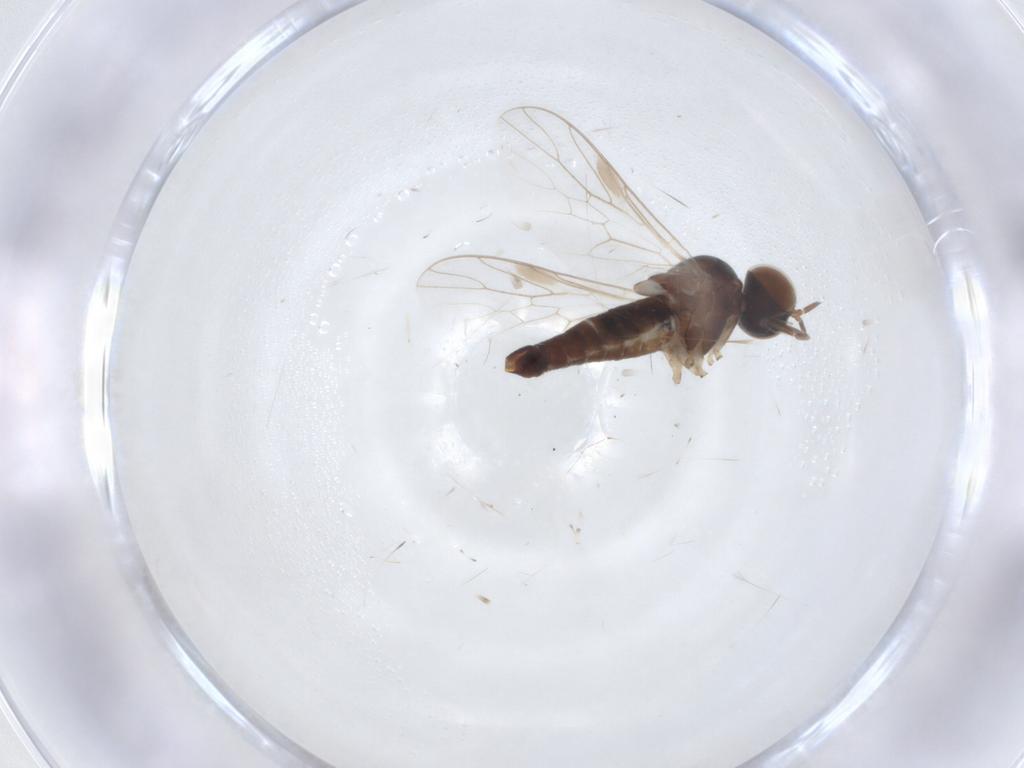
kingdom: Animalia
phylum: Arthropoda
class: Insecta
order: Diptera
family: Scenopinidae
